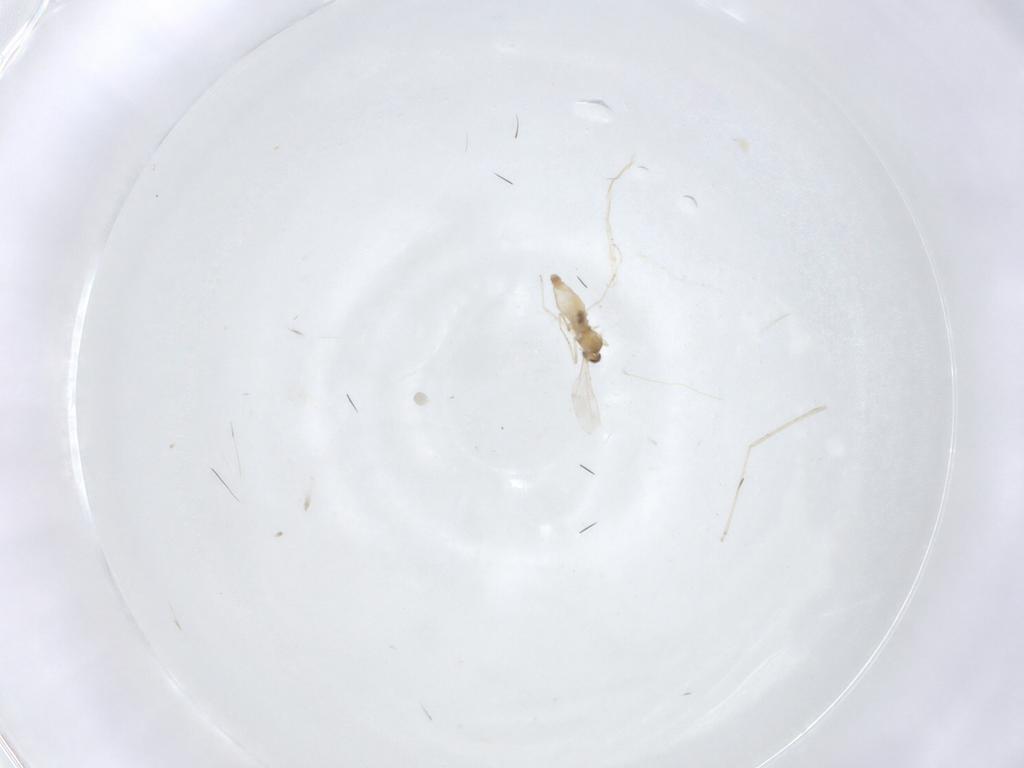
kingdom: Animalia
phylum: Arthropoda
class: Insecta
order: Diptera
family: Cecidomyiidae
